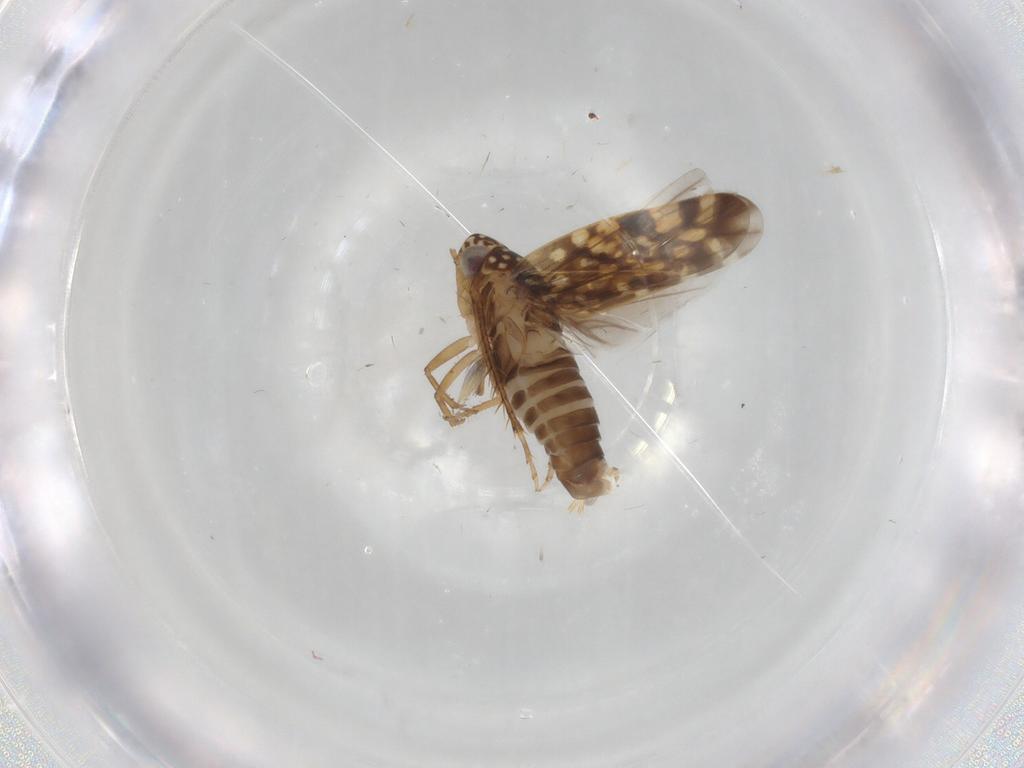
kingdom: Animalia
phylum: Arthropoda
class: Insecta
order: Hemiptera
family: Cicadellidae
